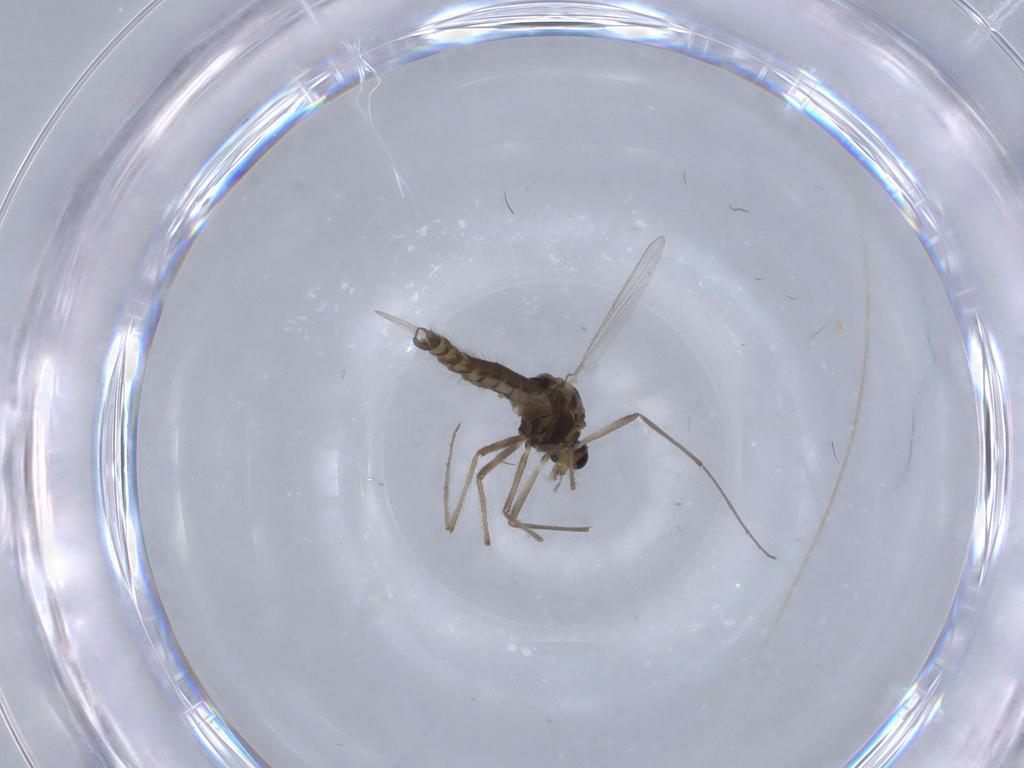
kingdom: Animalia
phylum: Arthropoda
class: Insecta
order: Diptera
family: Chironomidae
